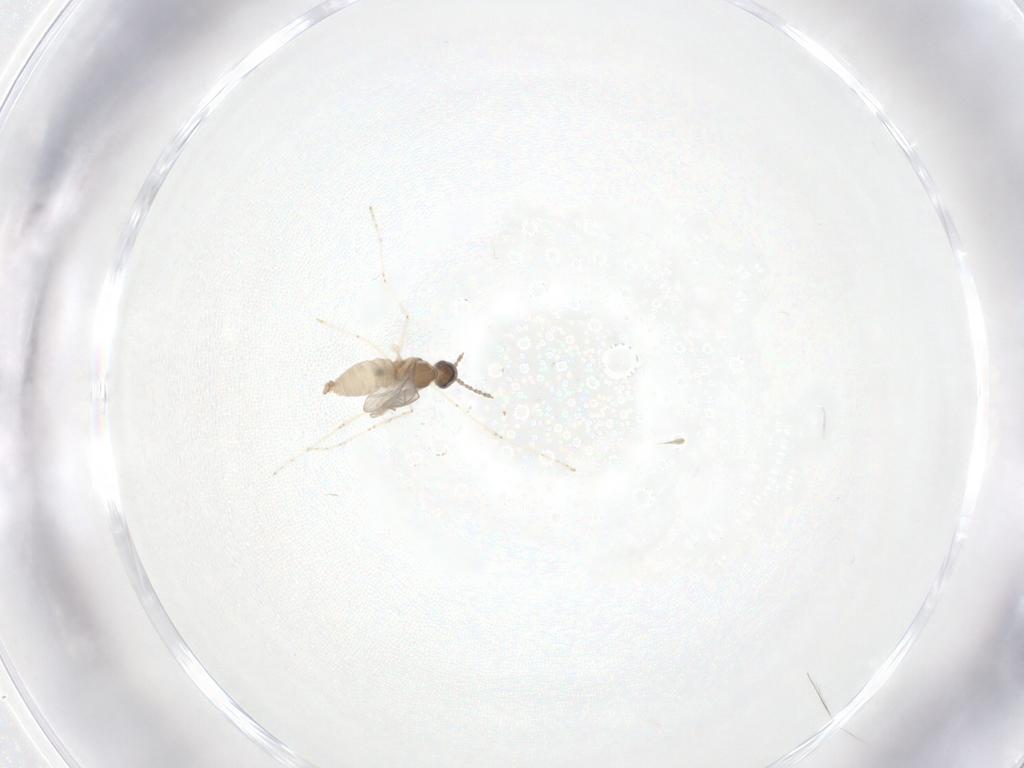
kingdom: Animalia
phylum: Arthropoda
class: Insecta
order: Diptera
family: Cecidomyiidae
